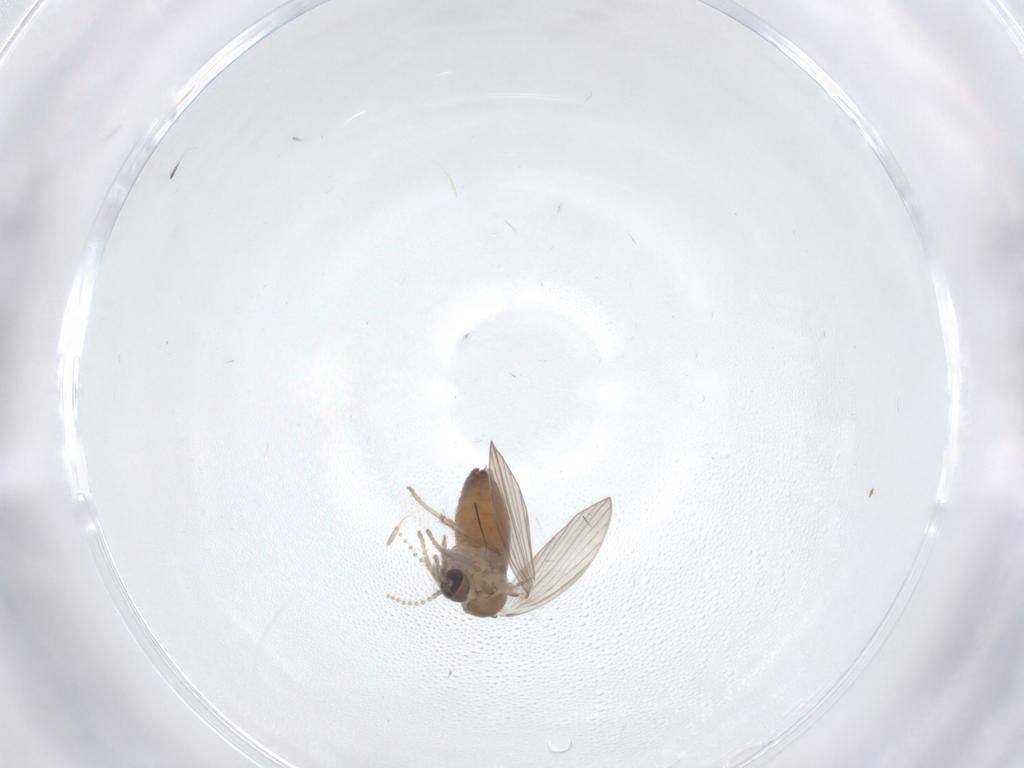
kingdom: Animalia
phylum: Arthropoda
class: Insecta
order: Diptera
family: Psychodidae
